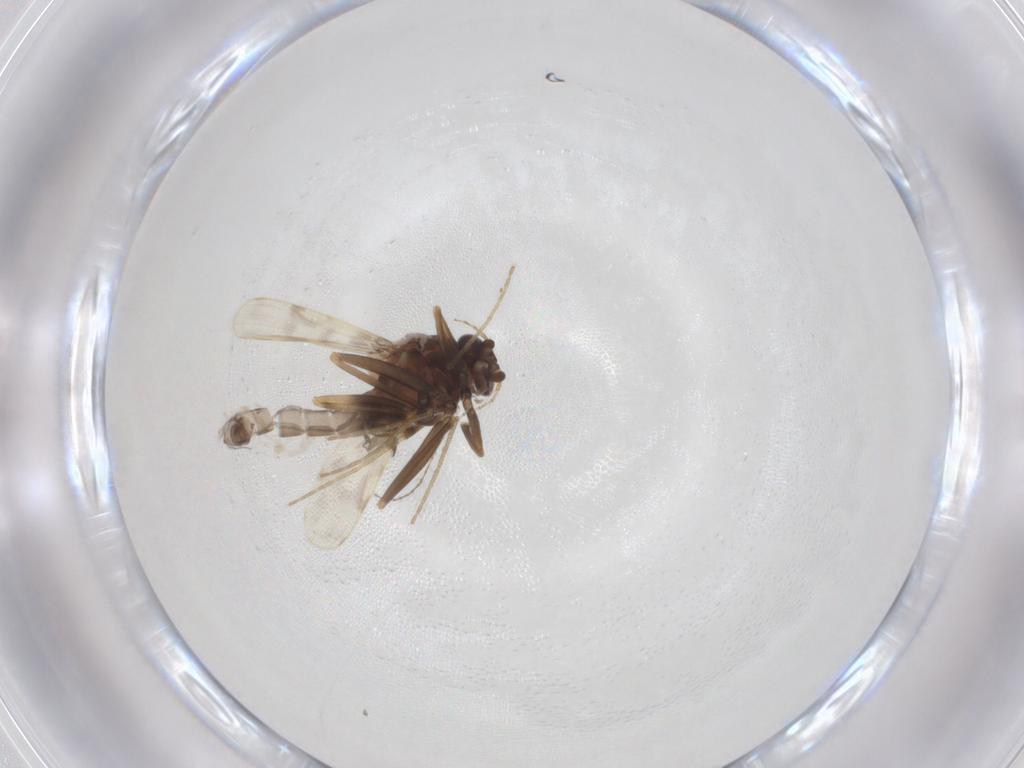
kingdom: Animalia
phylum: Arthropoda
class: Insecta
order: Diptera
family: Corethrellidae
